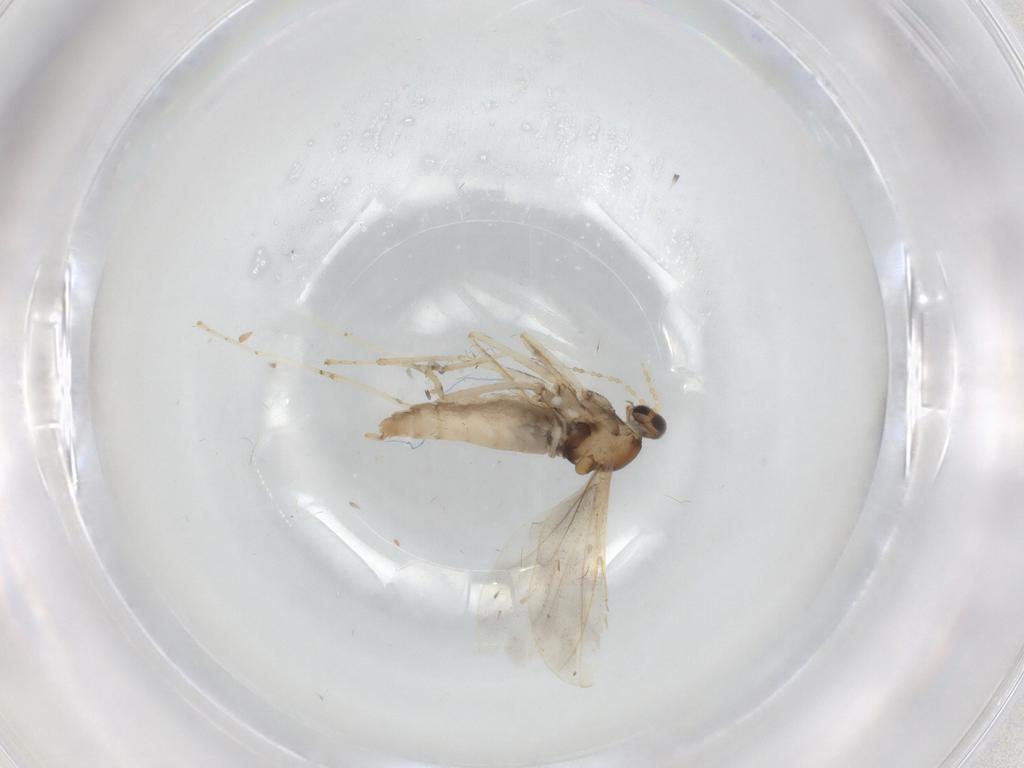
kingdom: Animalia
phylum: Arthropoda
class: Insecta
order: Diptera
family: Cecidomyiidae
